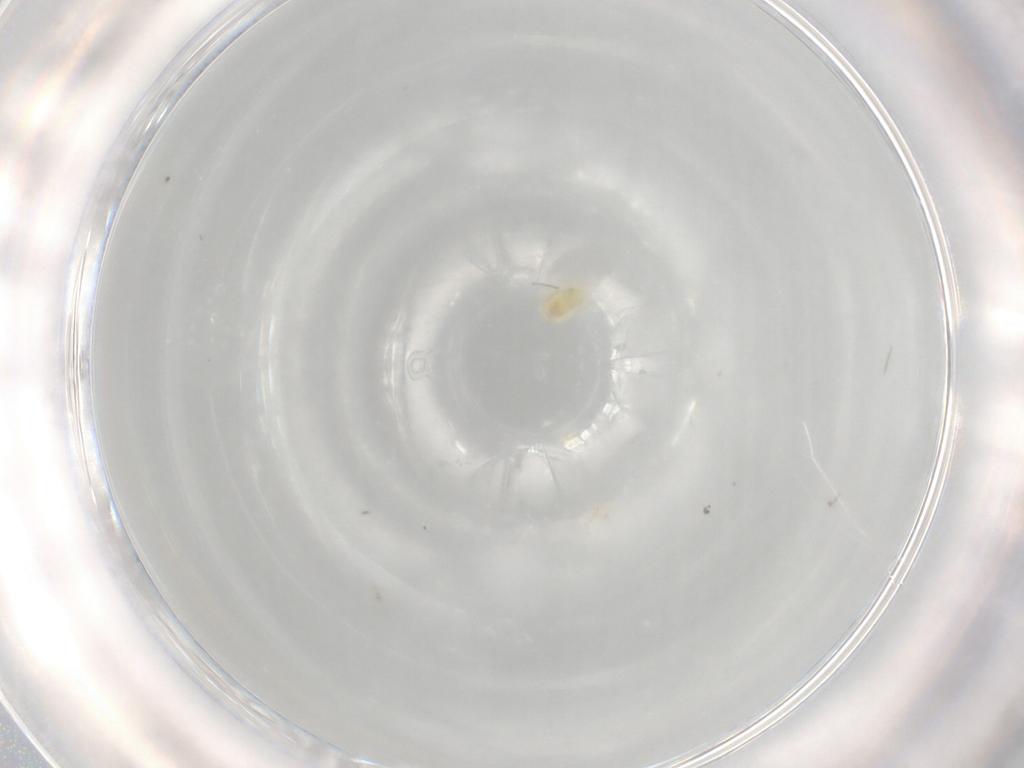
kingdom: Animalia
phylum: Arthropoda
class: Arachnida
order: Trombidiformes
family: Eupodidae
